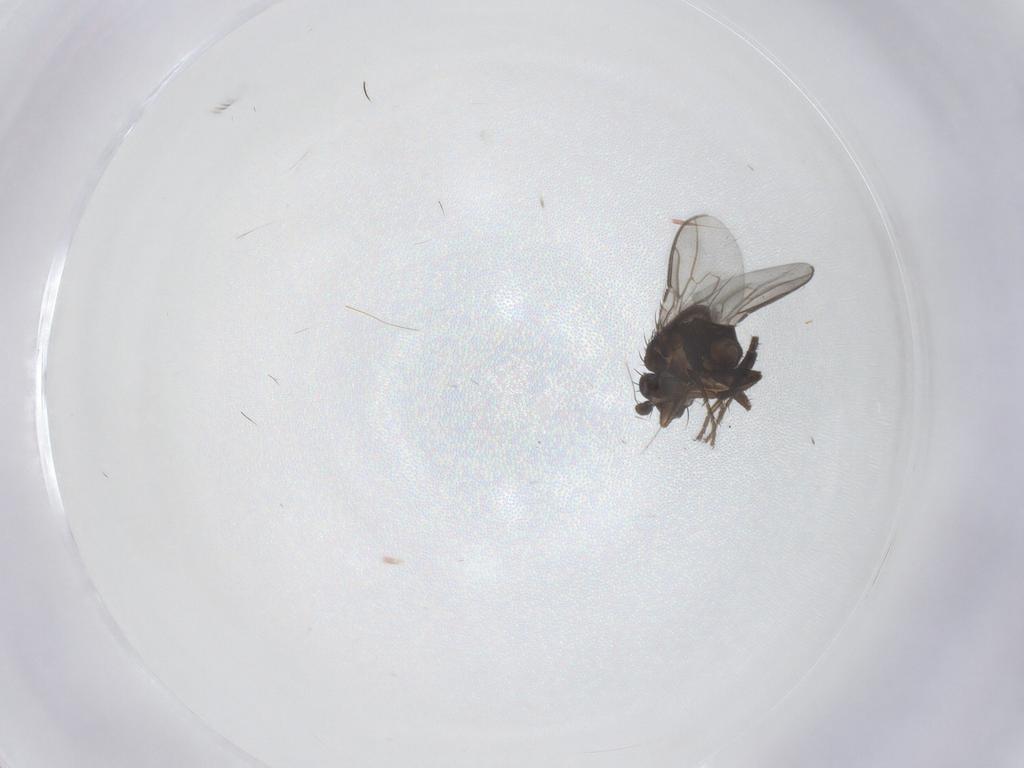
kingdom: Animalia
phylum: Arthropoda
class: Insecta
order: Diptera
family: Sphaeroceridae
